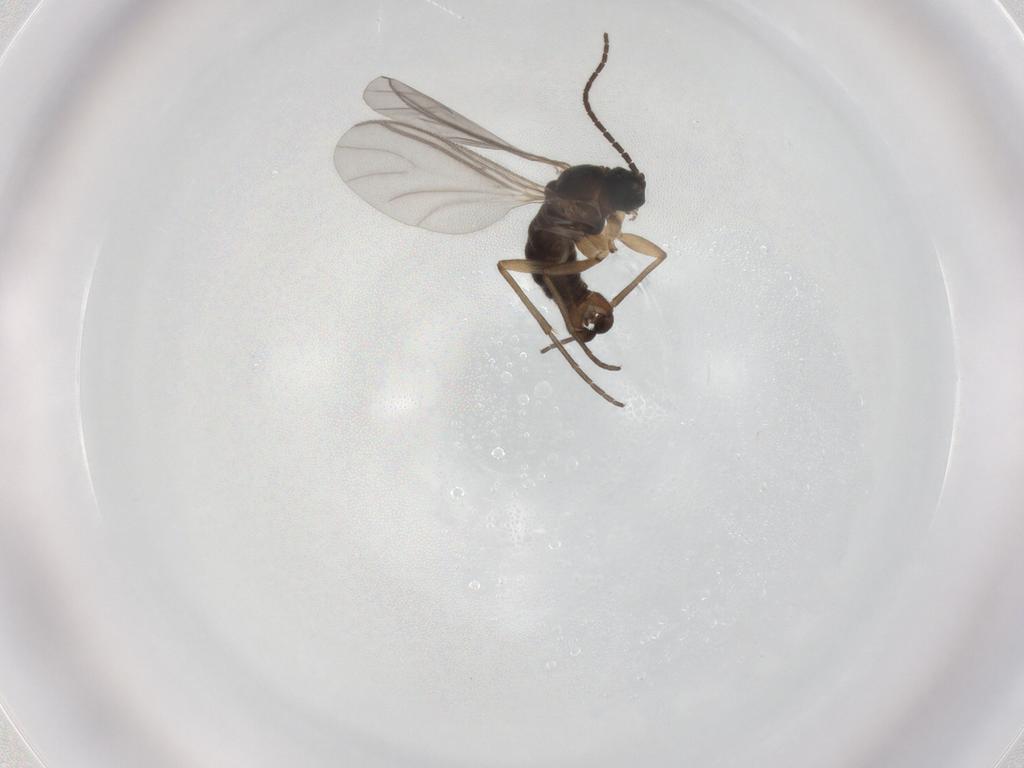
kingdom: Animalia
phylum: Arthropoda
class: Insecta
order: Diptera
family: Sciaridae
